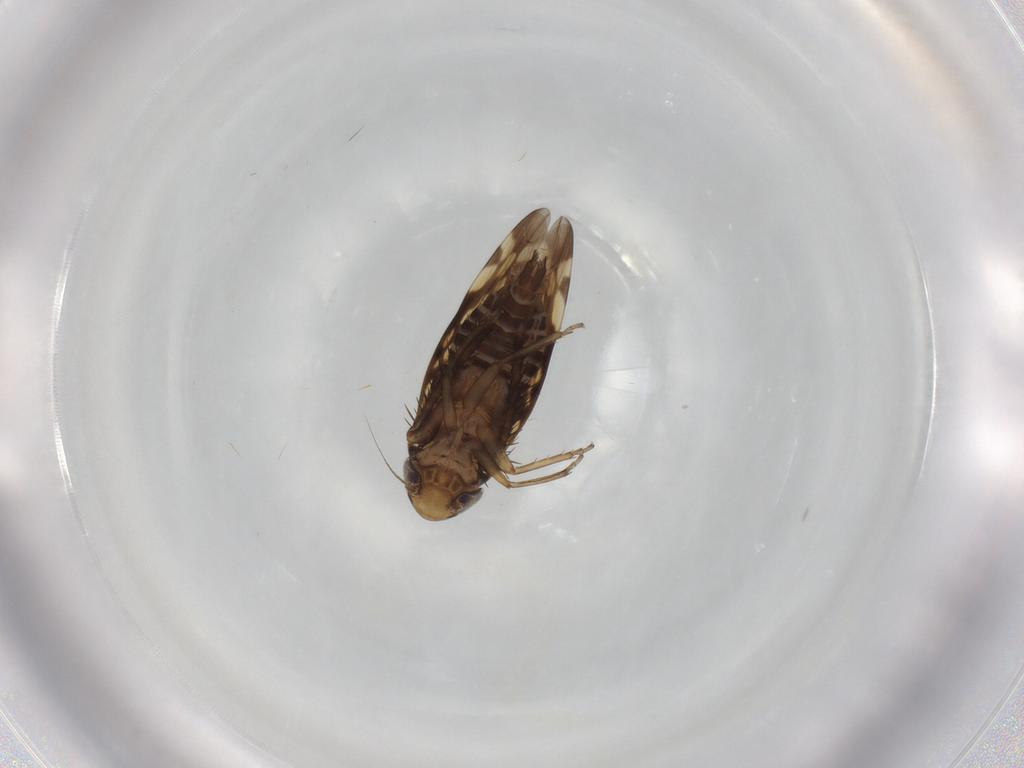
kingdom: Animalia
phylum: Arthropoda
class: Insecta
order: Hemiptera
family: Cicadellidae
